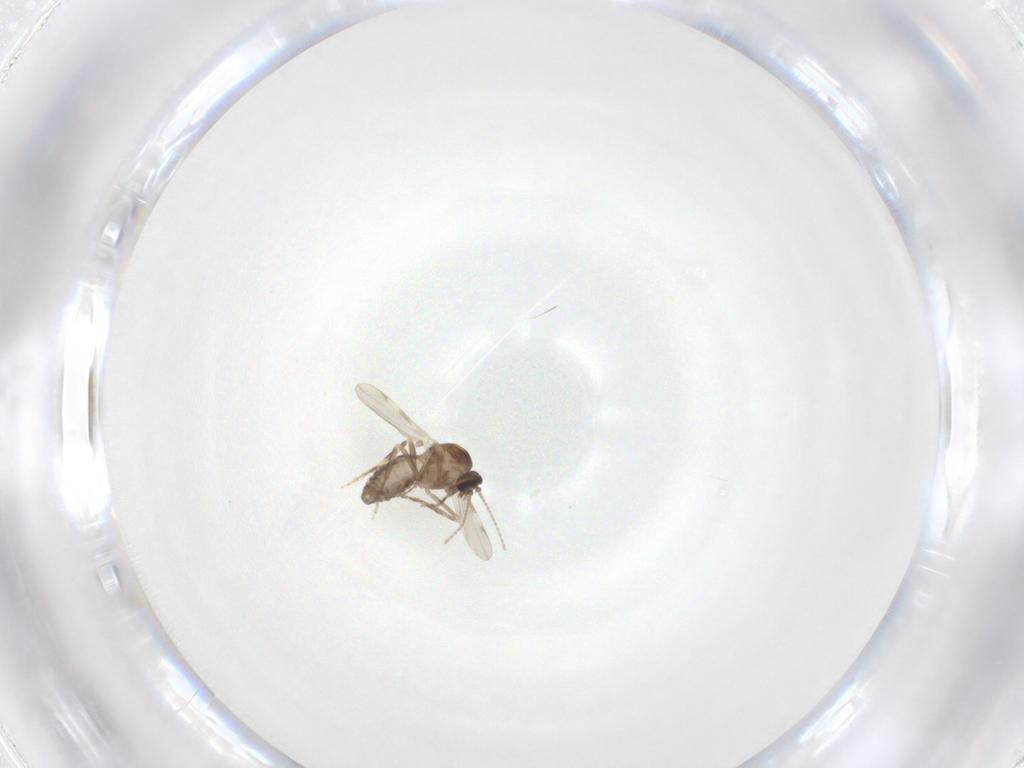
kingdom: Animalia
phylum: Arthropoda
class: Insecta
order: Diptera
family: Ceratopogonidae
